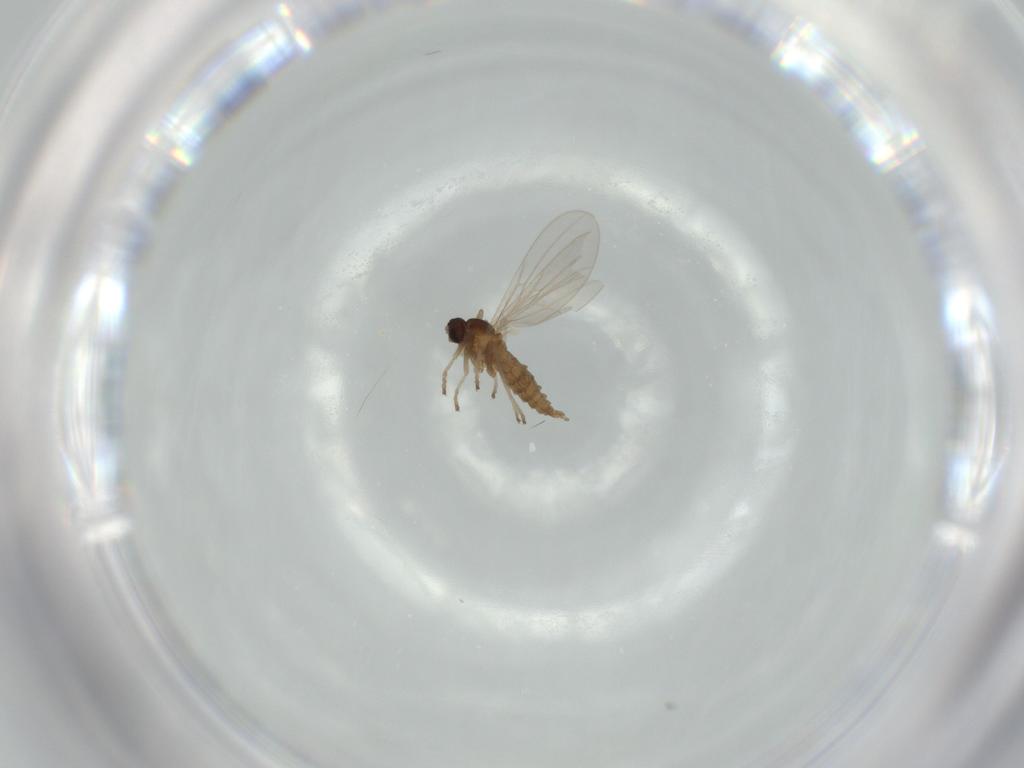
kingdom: Animalia
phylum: Arthropoda
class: Insecta
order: Diptera
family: Cecidomyiidae
